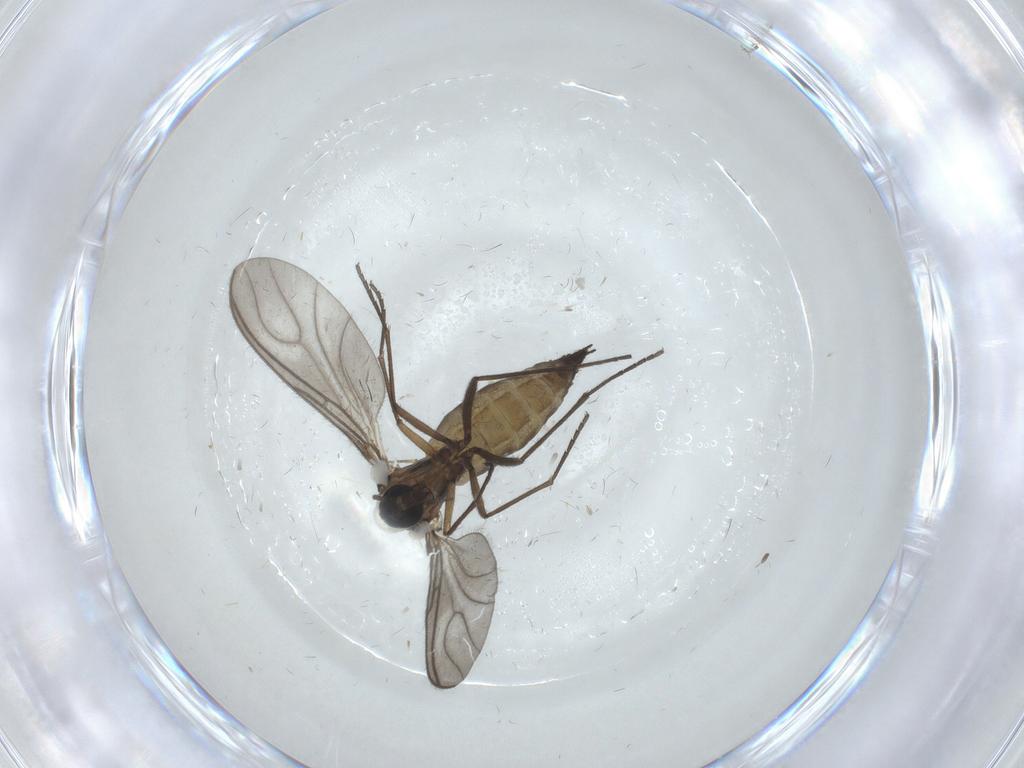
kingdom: Animalia
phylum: Arthropoda
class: Insecta
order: Diptera
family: Sciaridae
